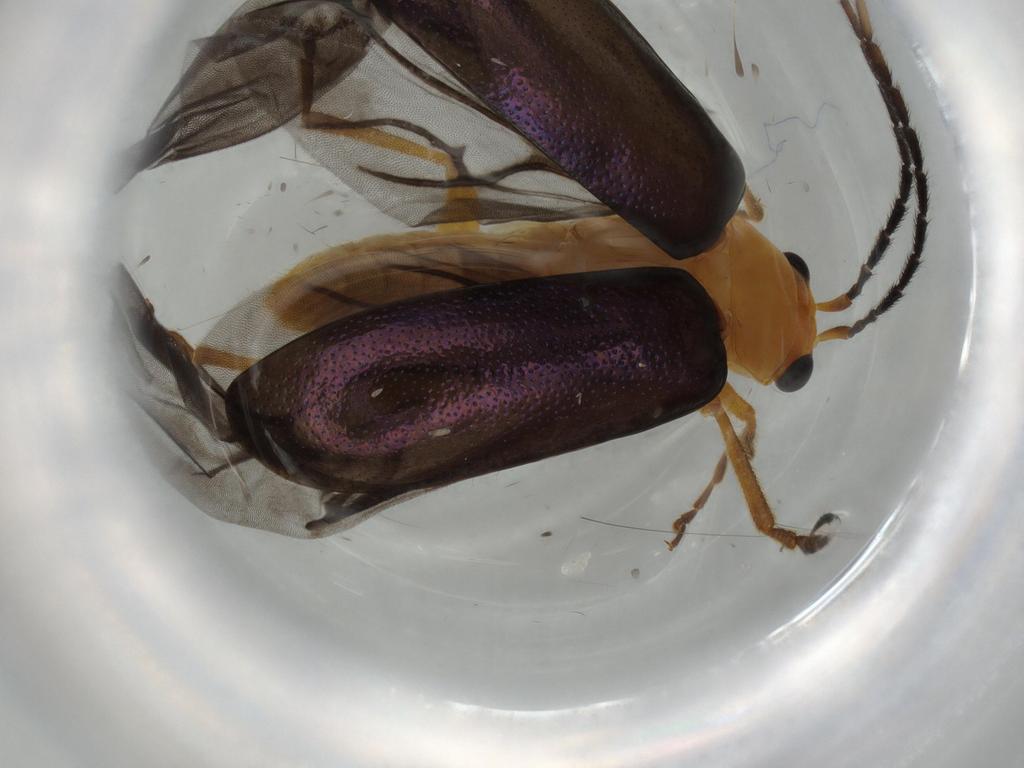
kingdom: Animalia
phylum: Arthropoda
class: Insecta
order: Coleoptera
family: Chrysomelidae
